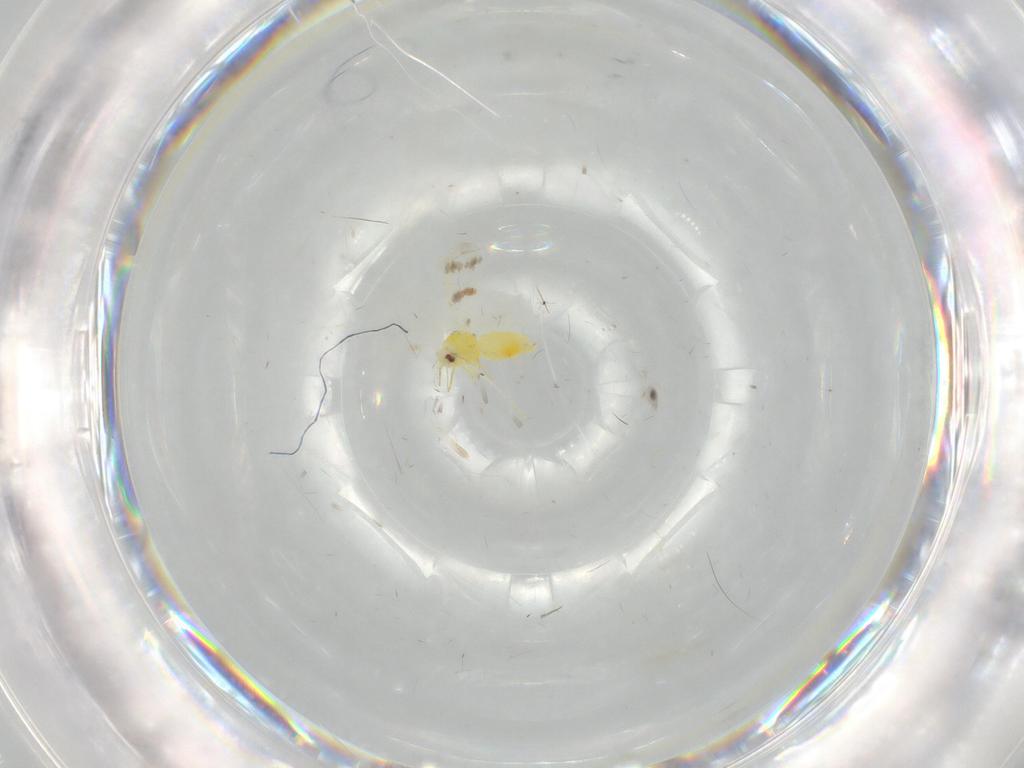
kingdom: Animalia
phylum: Arthropoda
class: Insecta
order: Hemiptera
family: Aleyrodidae
